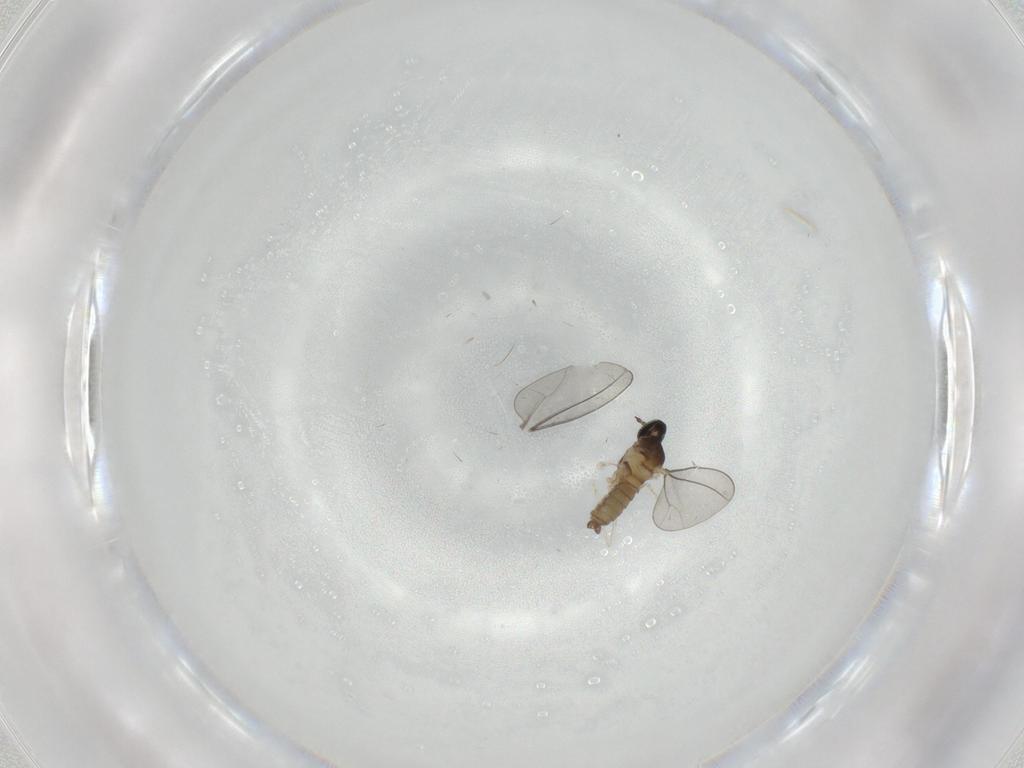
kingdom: Animalia
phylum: Arthropoda
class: Insecta
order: Diptera
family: Cecidomyiidae
